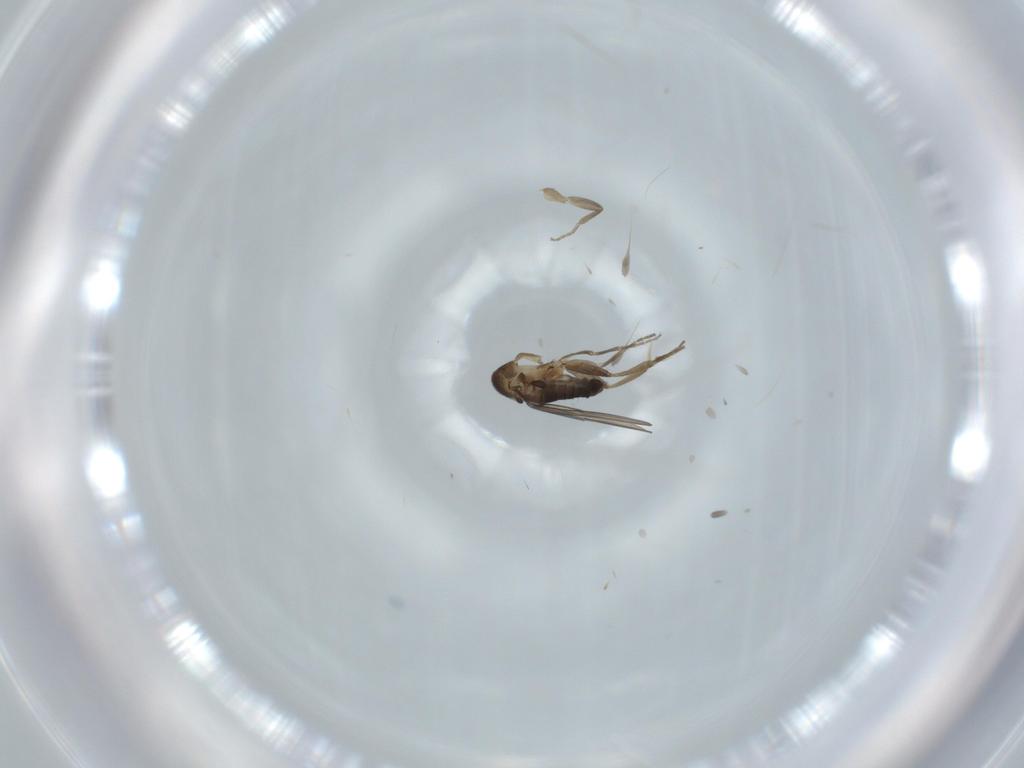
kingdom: Animalia
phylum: Arthropoda
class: Insecta
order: Diptera
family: Phoridae
